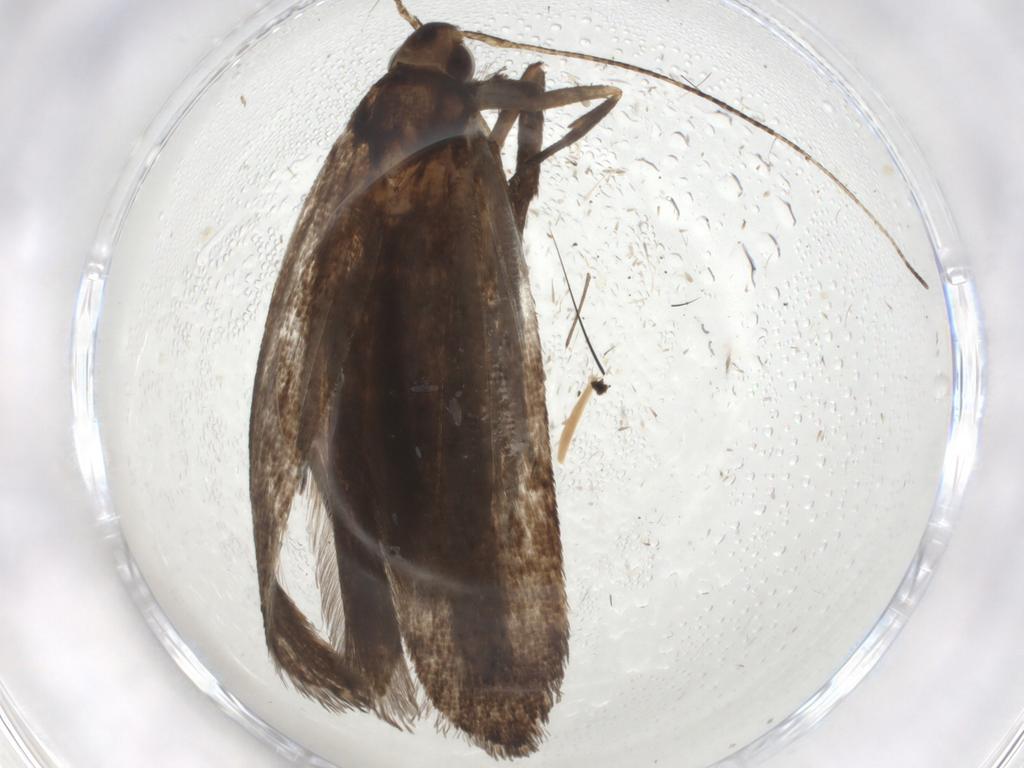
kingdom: Animalia
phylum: Arthropoda
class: Insecta
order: Lepidoptera
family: Gelechiidae
